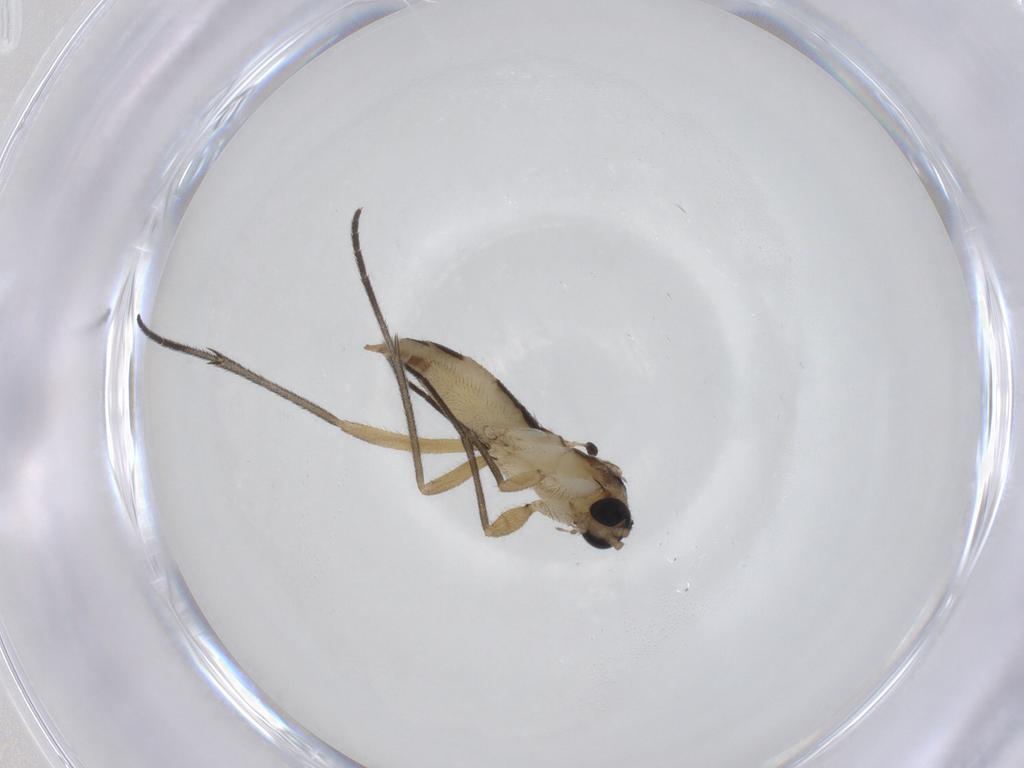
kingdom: Animalia
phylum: Arthropoda
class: Insecta
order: Diptera
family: Sciaridae
